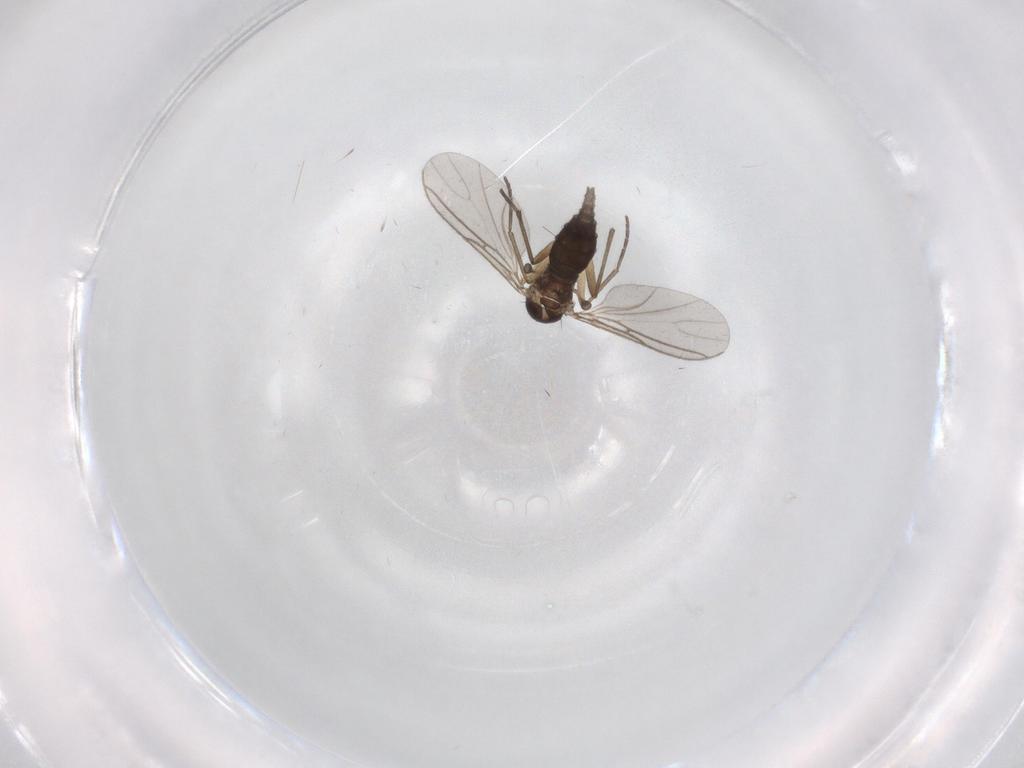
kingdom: Animalia
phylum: Arthropoda
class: Insecta
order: Diptera
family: Sciaridae
